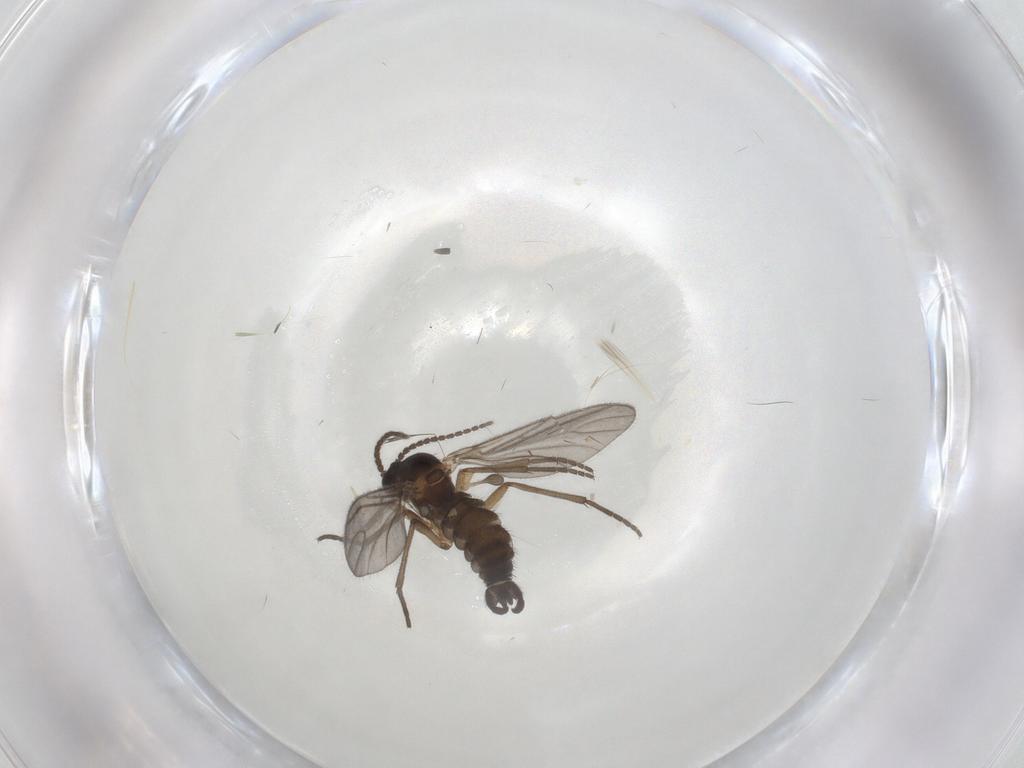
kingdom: Animalia
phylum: Arthropoda
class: Insecta
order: Diptera
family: Sciaridae
